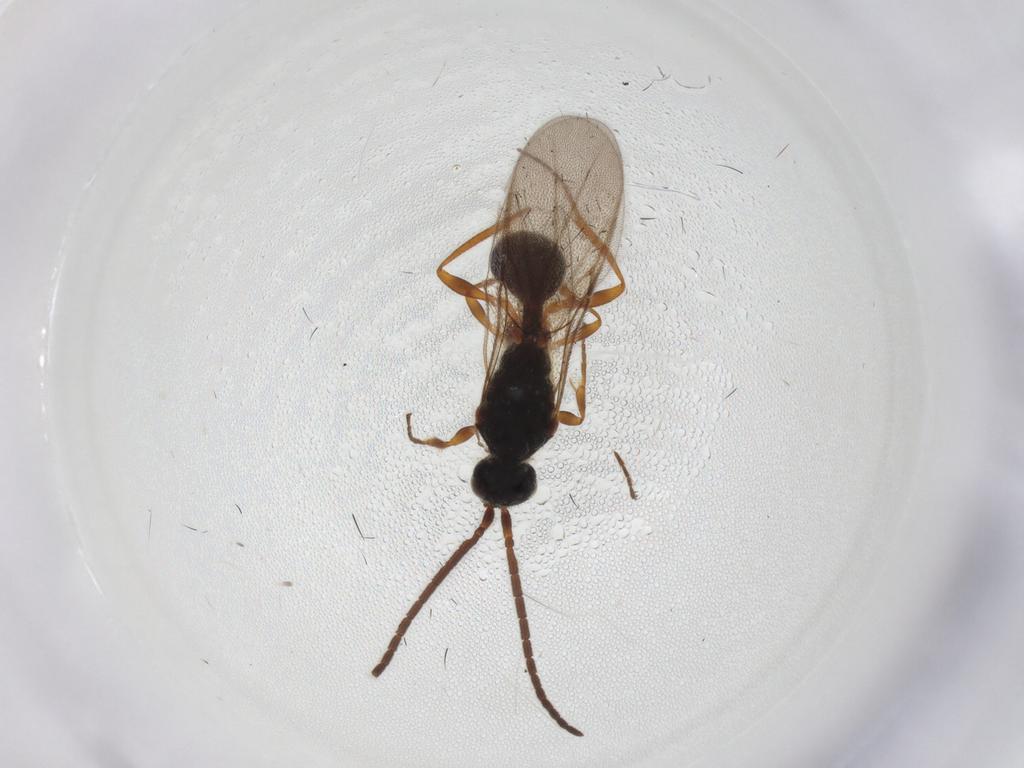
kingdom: Animalia
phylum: Arthropoda
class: Insecta
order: Hymenoptera
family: Diapriidae
